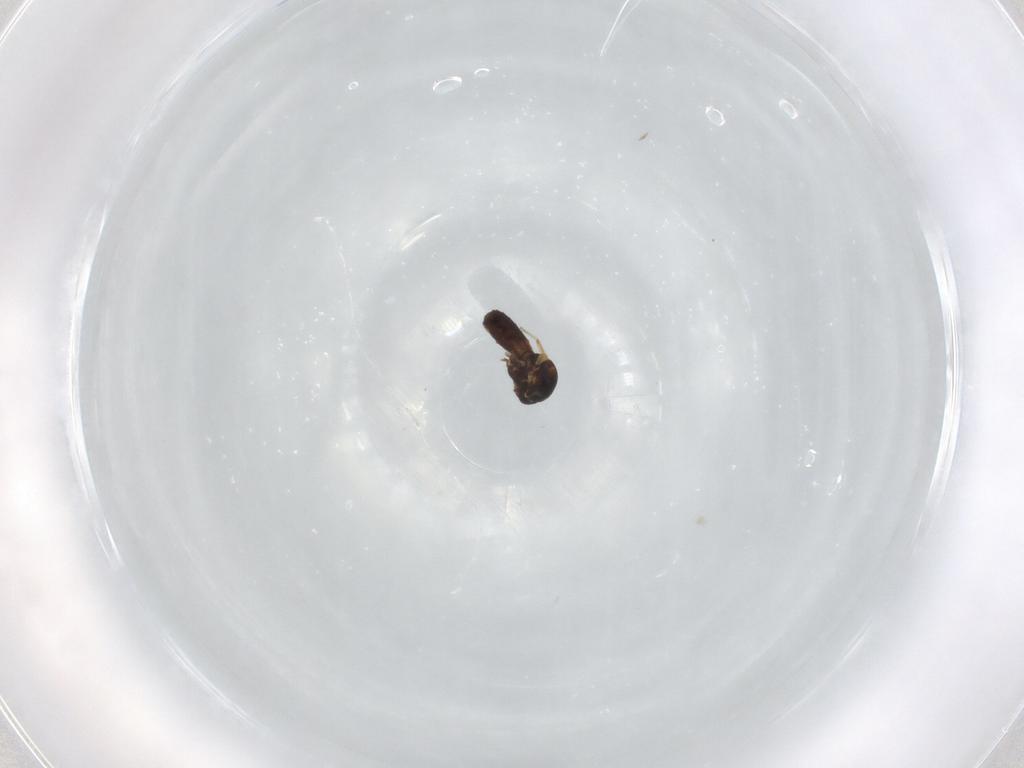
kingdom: Animalia
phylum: Arthropoda
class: Insecta
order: Diptera
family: Ceratopogonidae
